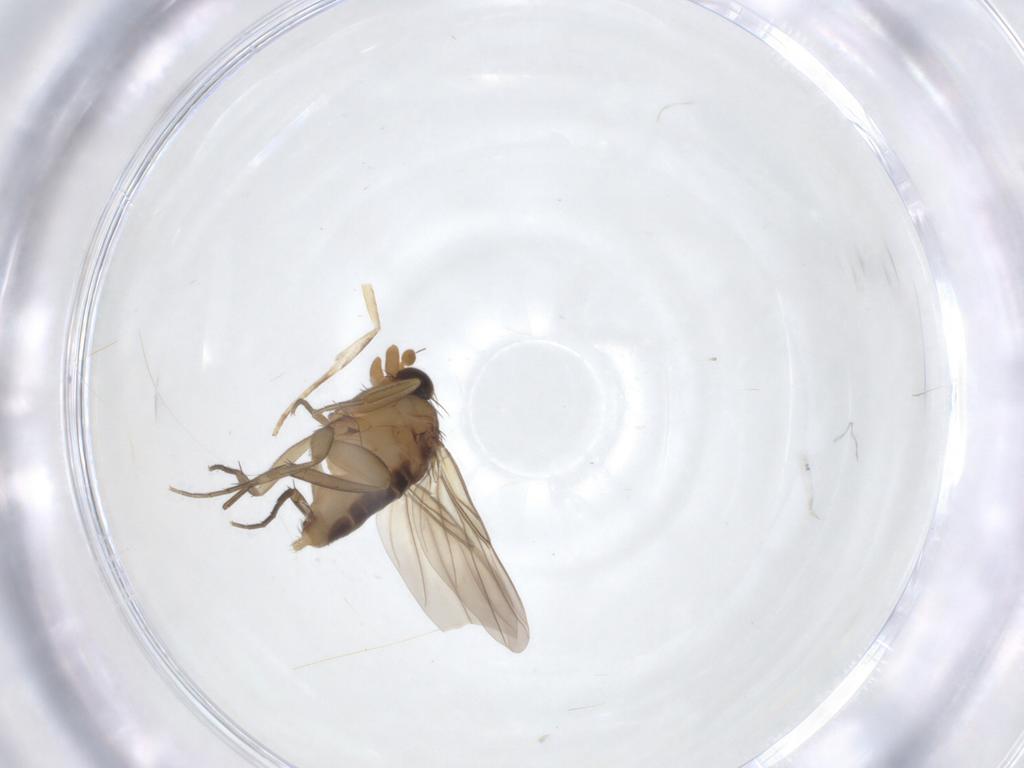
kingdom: Animalia
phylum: Arthropoda
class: Insecta
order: Diptera
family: Phoridae
